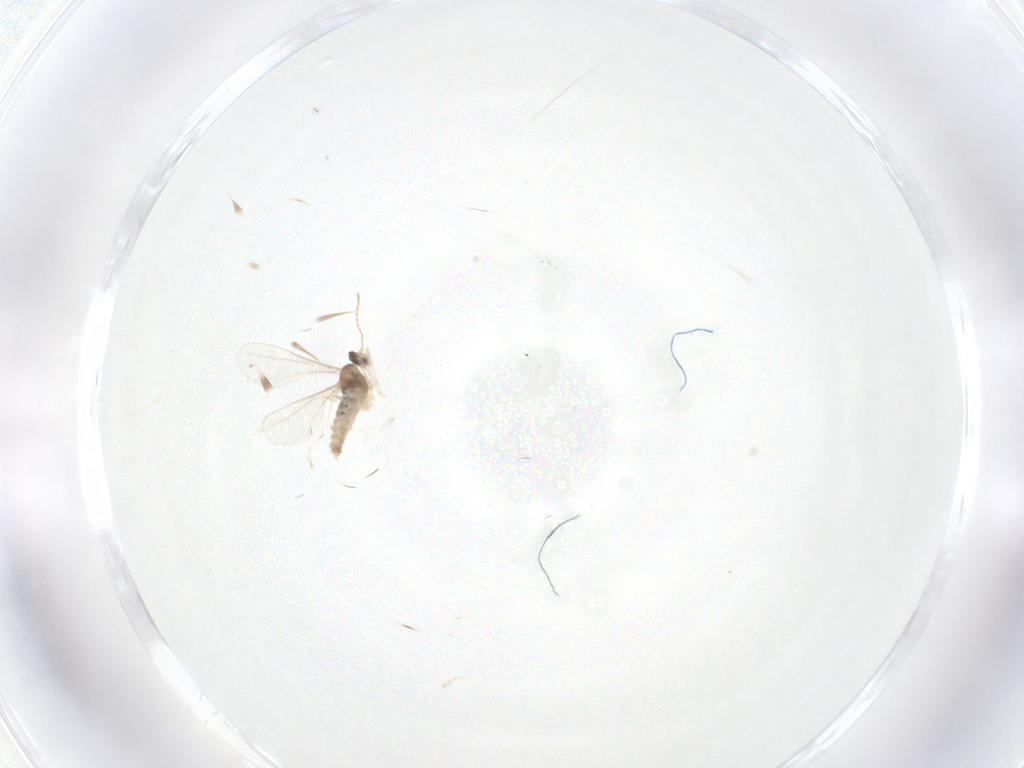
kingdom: Animalia
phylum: Arthropoda
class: Insecta
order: Diptera
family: Cecidomyiidae
